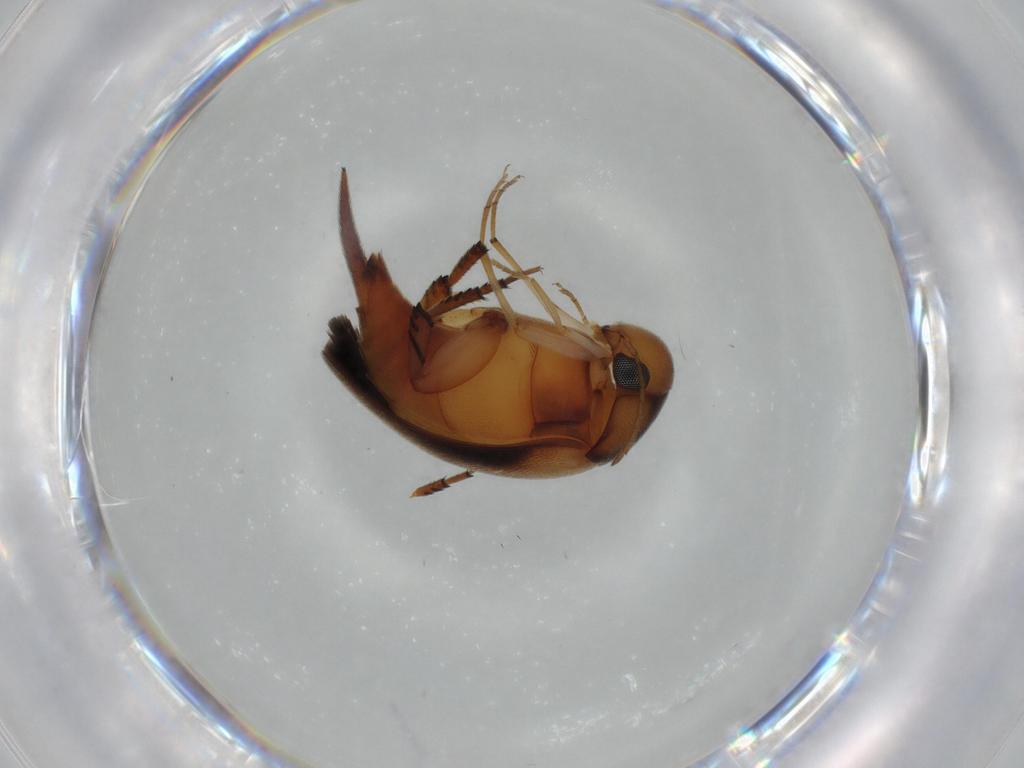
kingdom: Animalia
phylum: Arthropoda
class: Insecta
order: Coleoptera
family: Mordellidae
